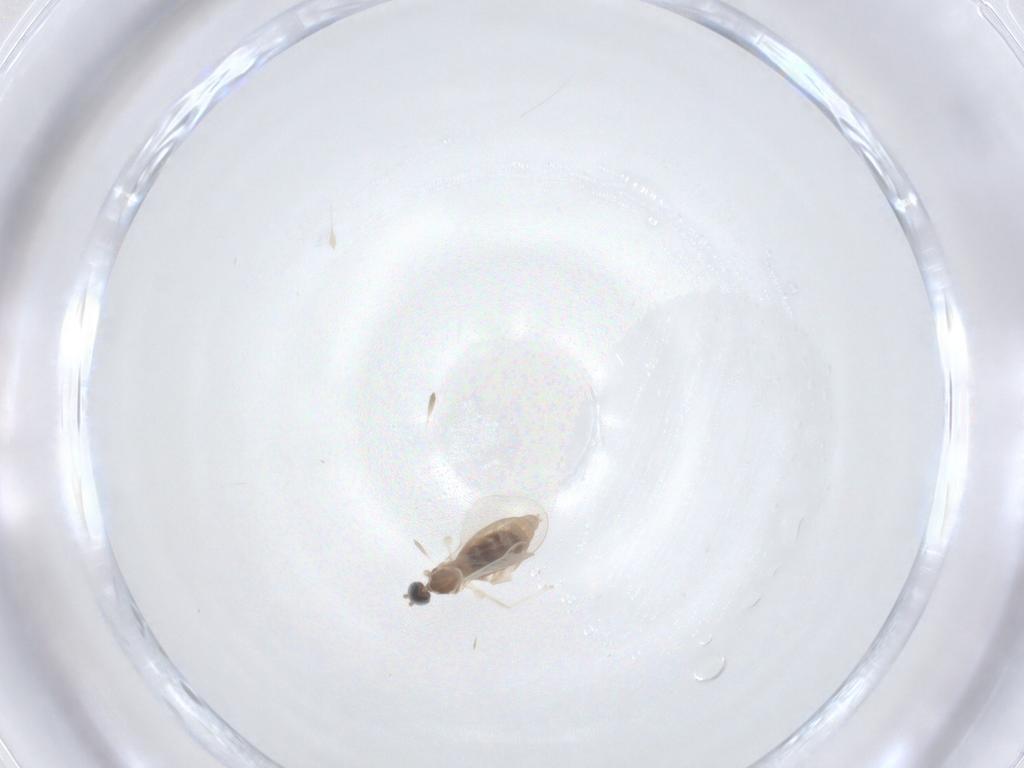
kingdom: Animalia
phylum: Arthropoda
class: Insecta
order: Diptera
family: Cecidomyiidae
